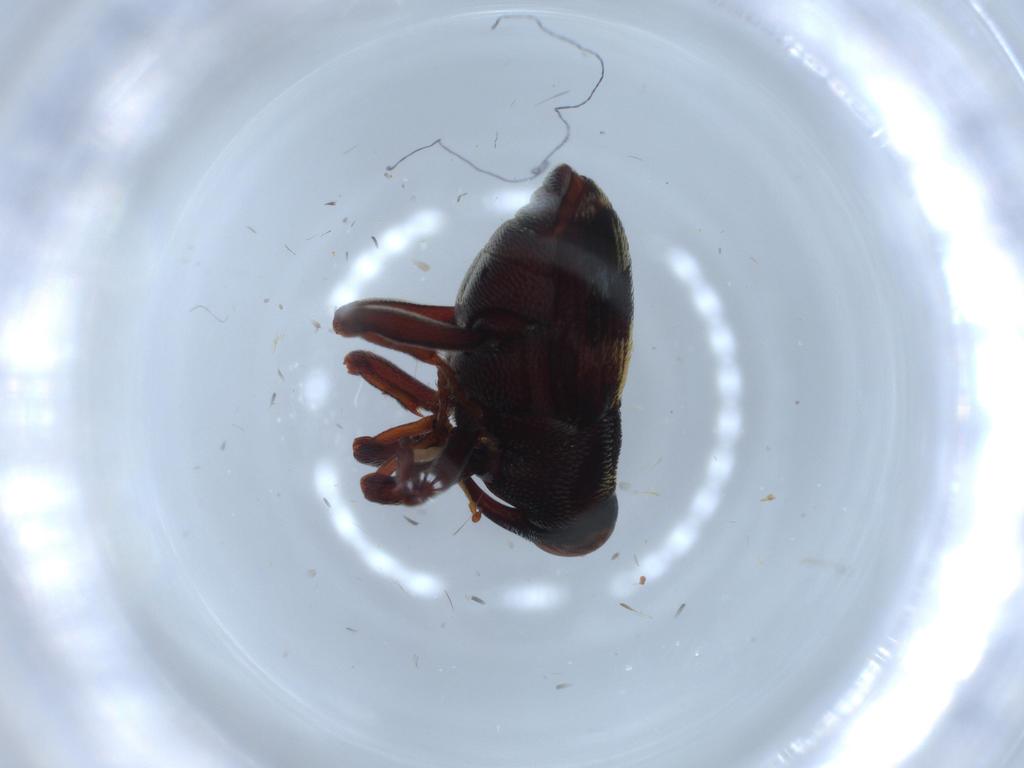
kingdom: Animalia
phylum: Arthropoda
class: Insecta
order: Coleoptera
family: Curculionidae
